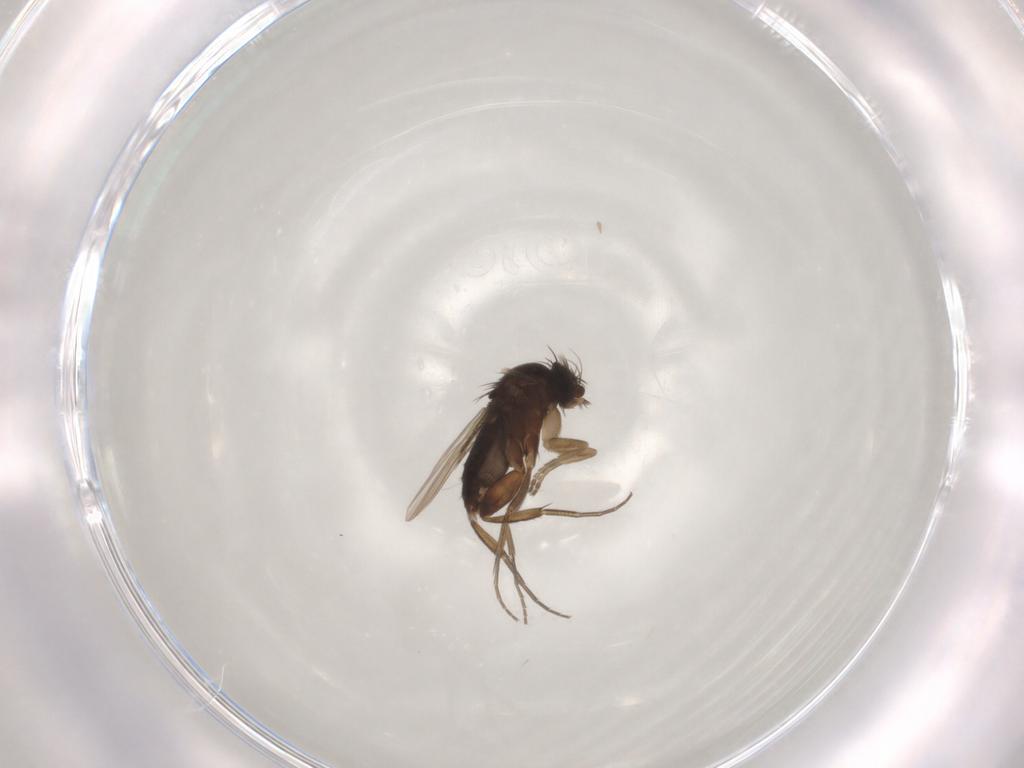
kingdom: Animalia
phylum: Arthropoda
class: Insecta
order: Diptera
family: Phoridae
